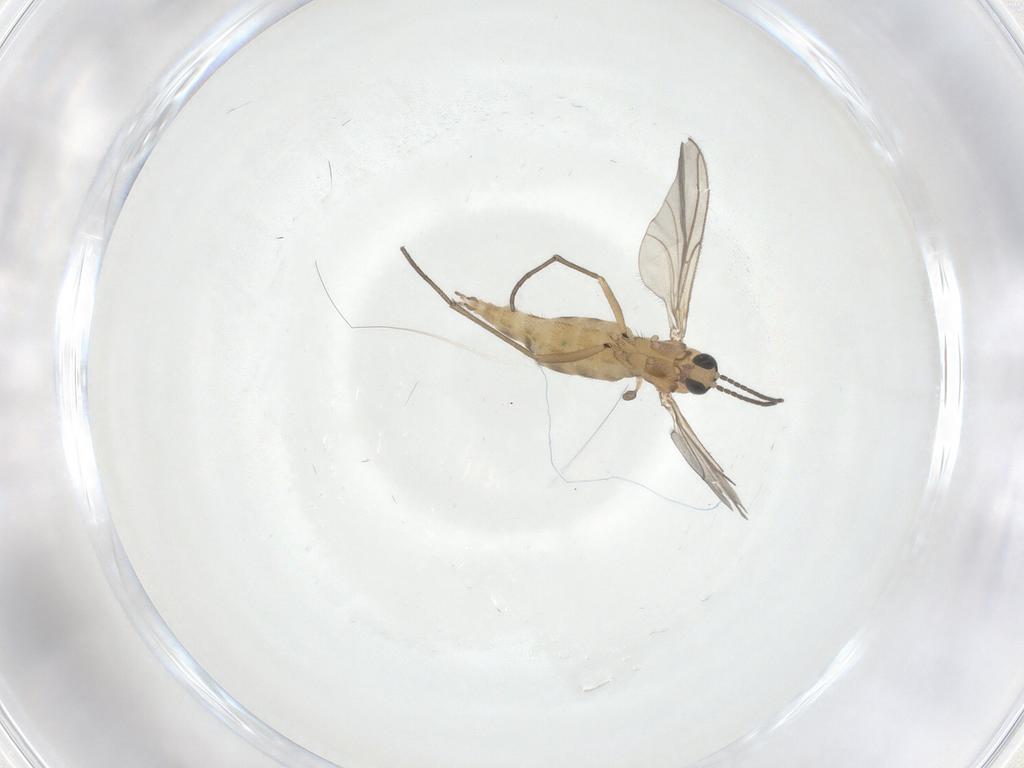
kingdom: Animalia
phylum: Arthropoda
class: Insecta
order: Diptera
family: Sciaridae
